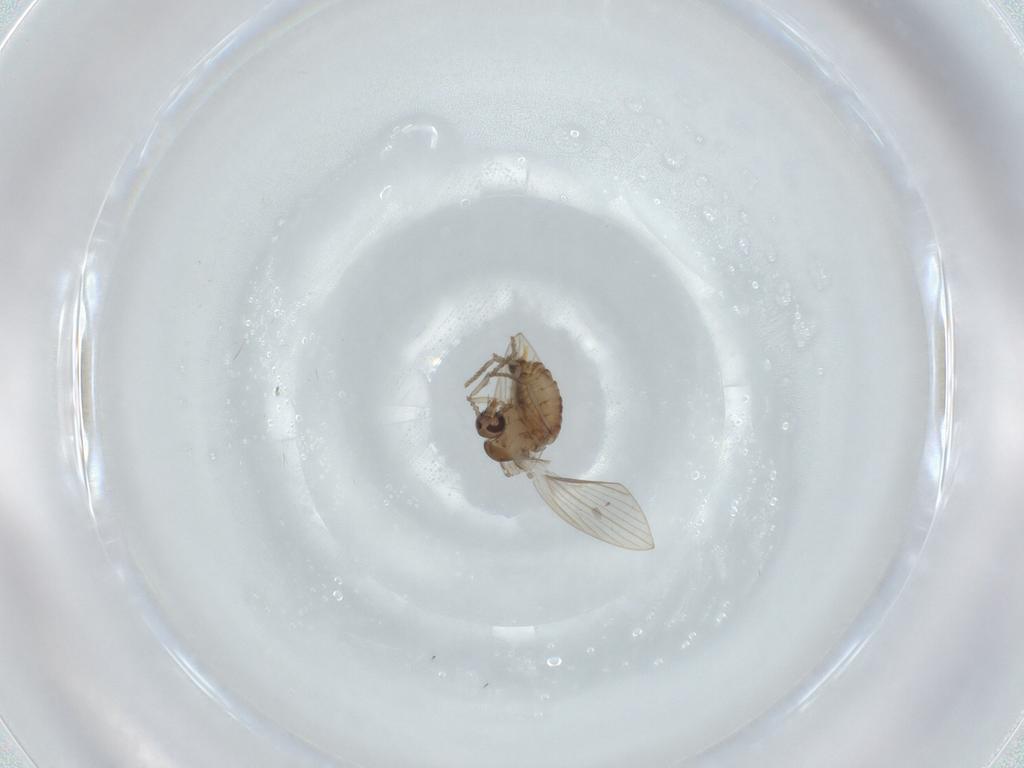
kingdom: Animalia
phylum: Arthropoda
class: Insecta
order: Diptera
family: Psychodidae
